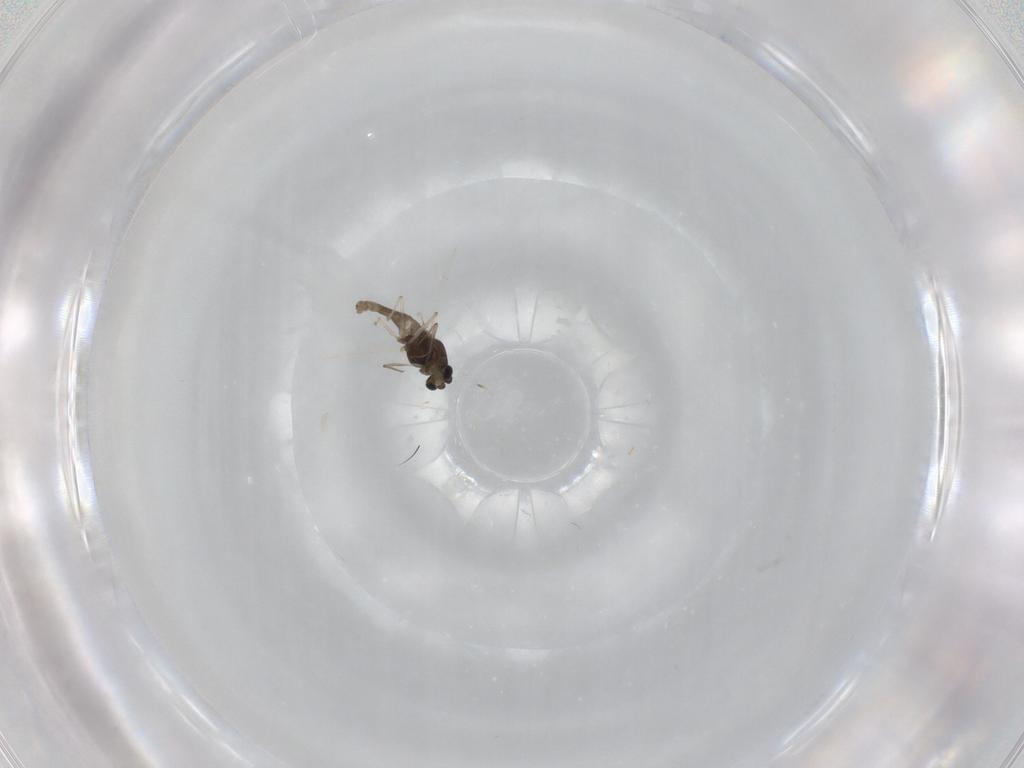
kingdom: Animalia
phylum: Arthropoda
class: Insecta
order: Diptera
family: Chironomidae
